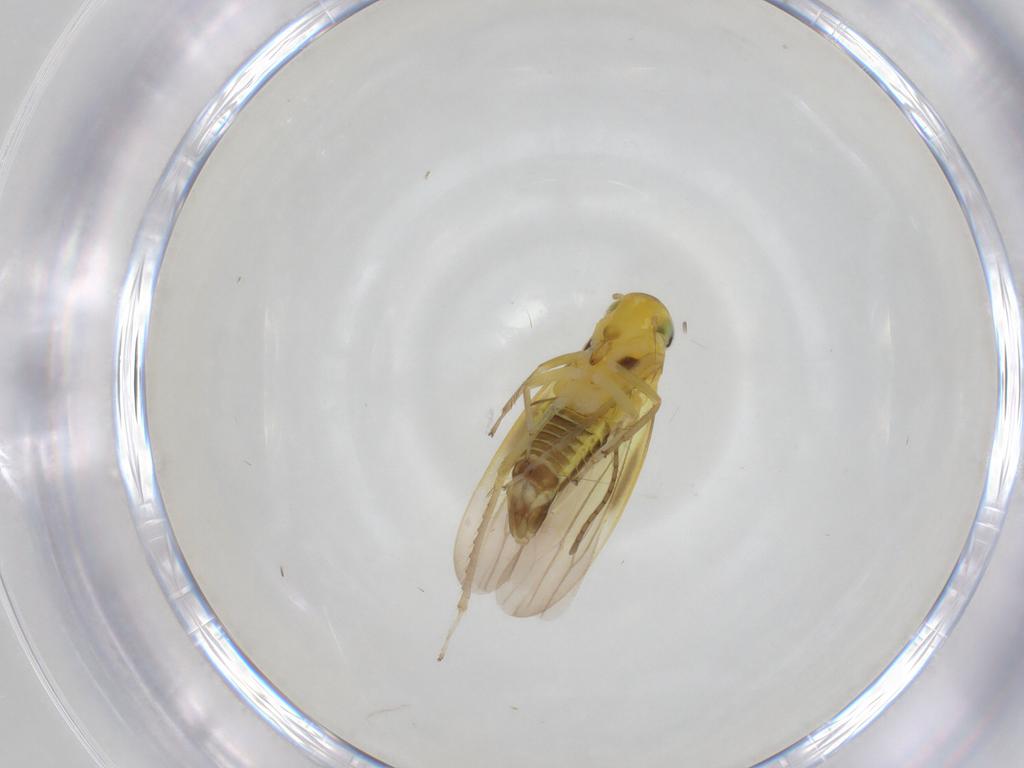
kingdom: Animalia
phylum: Arthropoda
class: Insecta
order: Hemiptera
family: Cicadellidae
